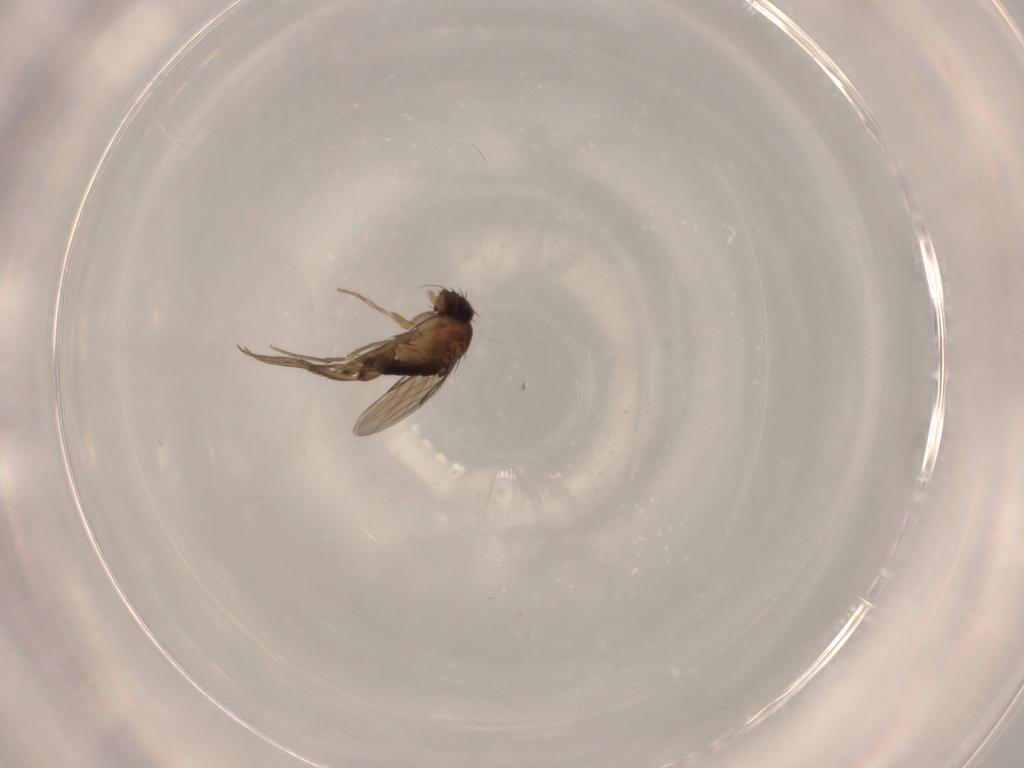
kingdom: Animalia
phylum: Arthropoda
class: Insecta
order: Diptera
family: Phoridae
